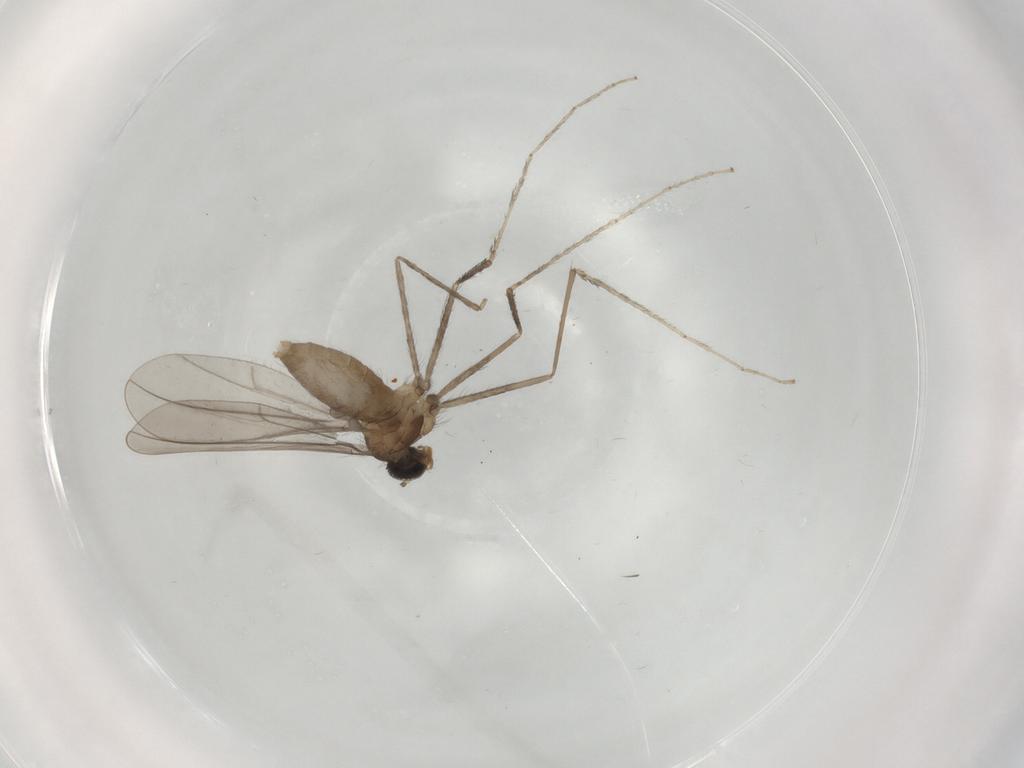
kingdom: Animalia
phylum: Arthropoda
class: Insecta
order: Diptera
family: Cecidomyiidae
